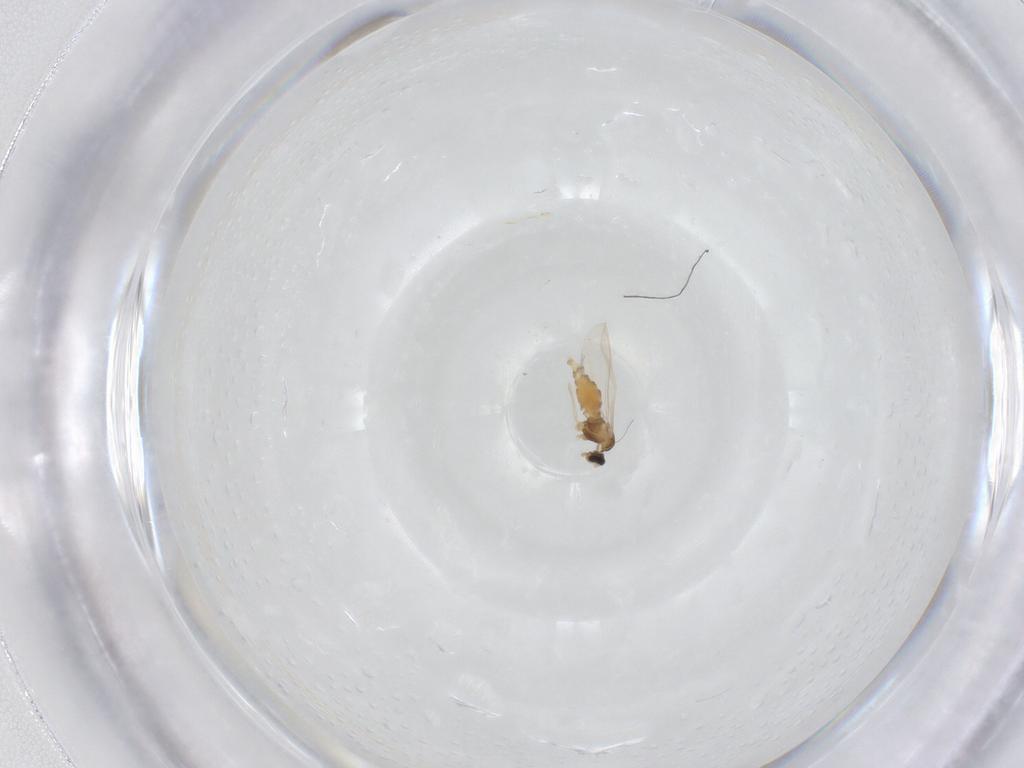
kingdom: Animalia
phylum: Arthropoda
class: Insecta
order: Diptera
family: Cecidomyiidae
